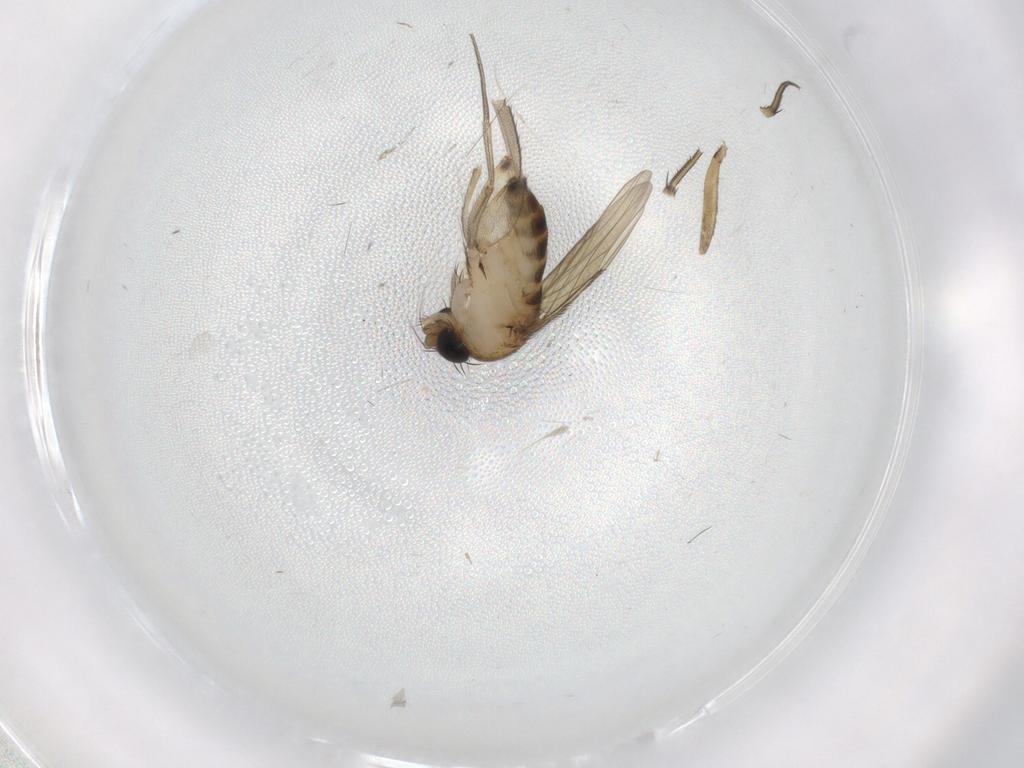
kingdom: Animalia
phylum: Arthropoda
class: Insecta
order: Diptera
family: Phoridae
